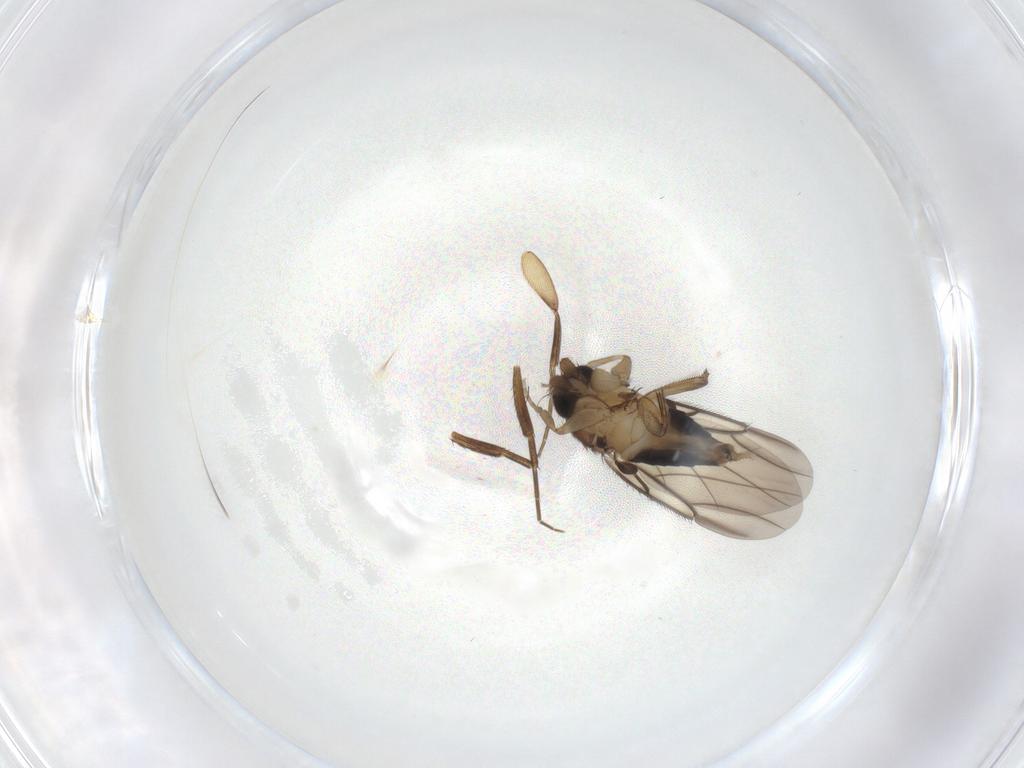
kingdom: Animalia
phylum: Arthropoda
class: Insecta
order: Diptera
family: Phoridae
